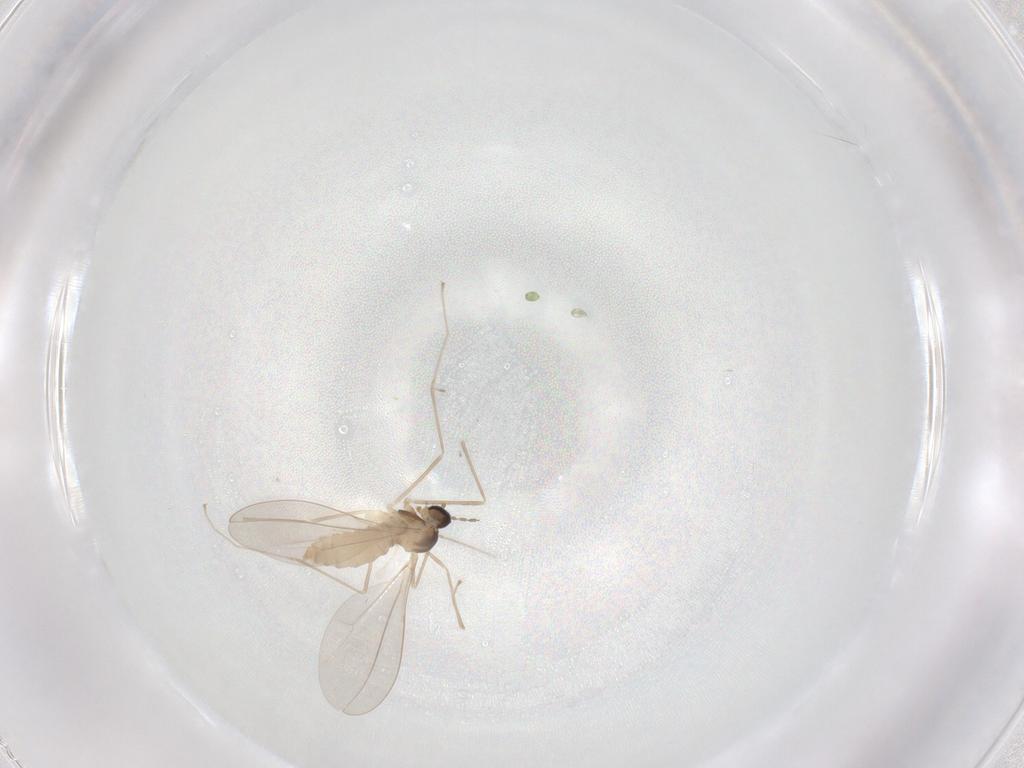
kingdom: Animalia
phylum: Arthropoda
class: Insecta
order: Diptera
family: Cecidomyiidae
